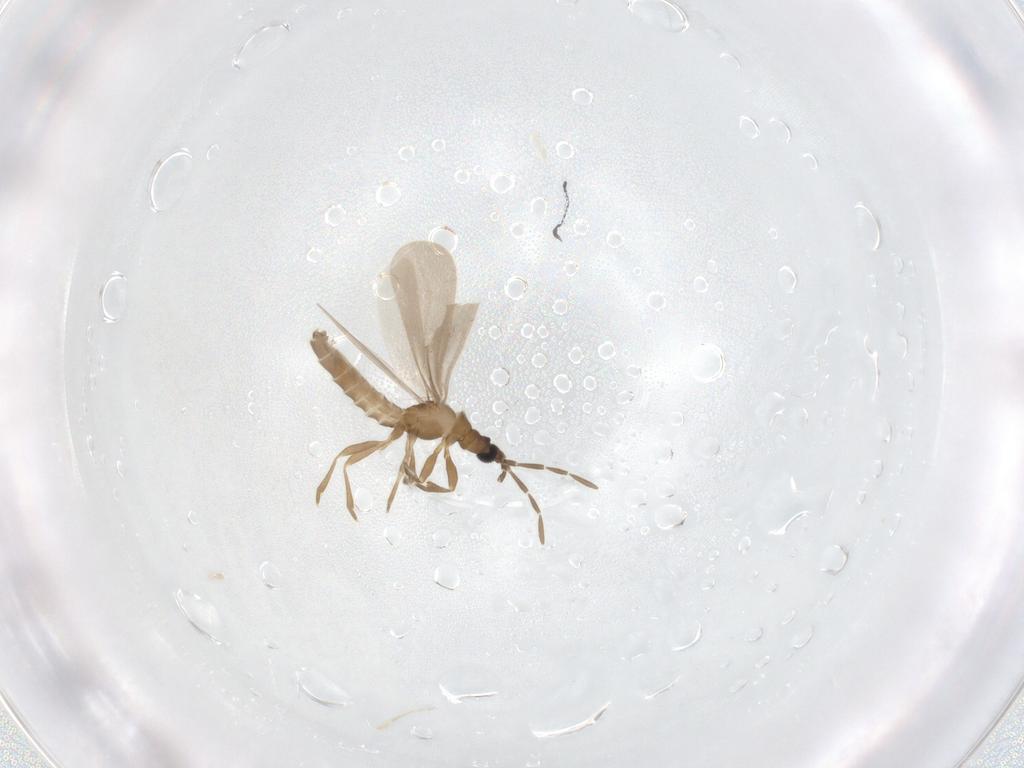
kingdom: Animalia
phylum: Arthropoda
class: Insecta
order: Hemiptera
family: Enicocephalidae
